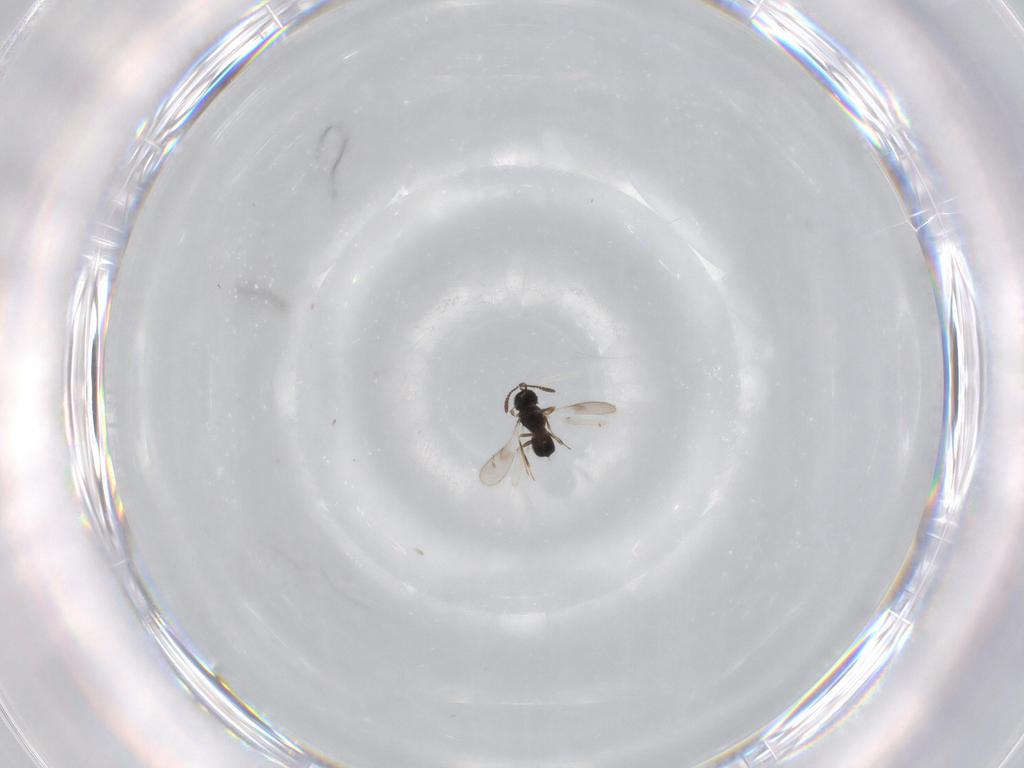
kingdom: Animalia
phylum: Arthropoda
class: Insecta
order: Hymenoptera
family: Scelionidae
